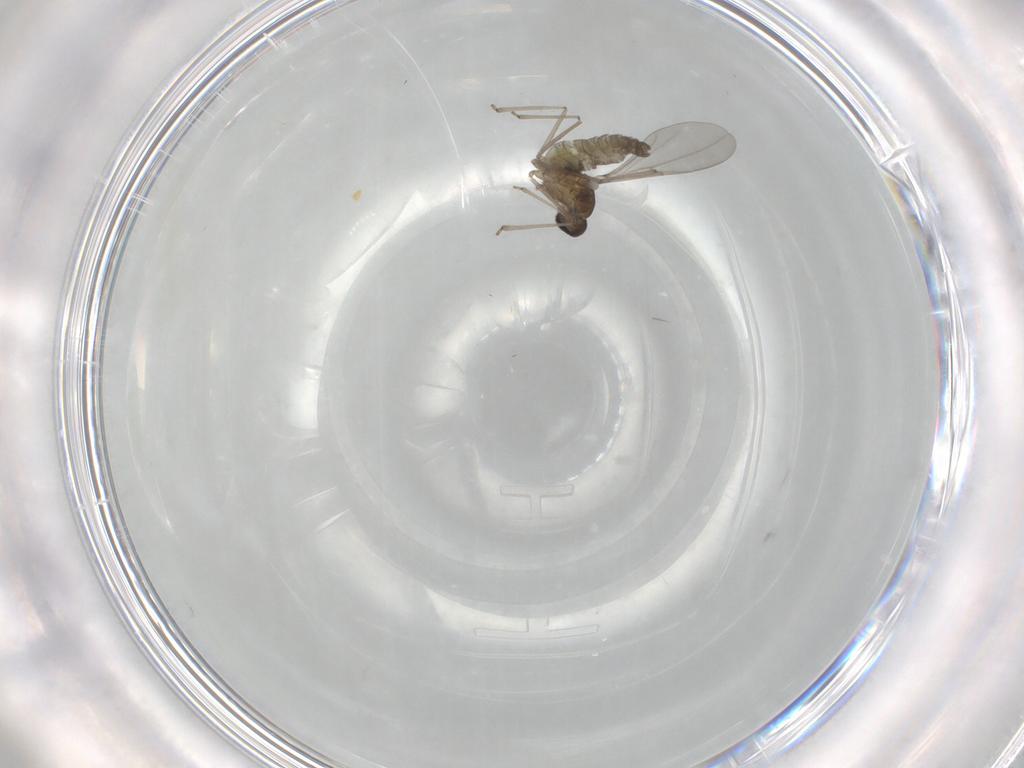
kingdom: Animalia
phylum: Arthropoda
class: Insecta
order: Diptera
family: Cecidomyiidae
